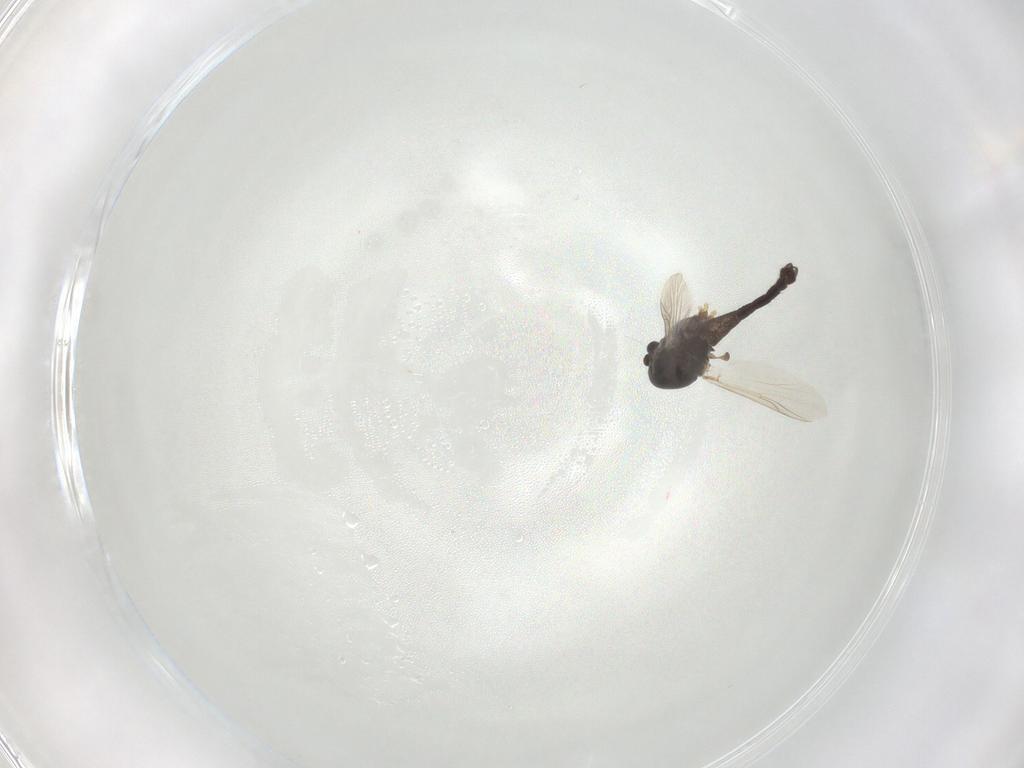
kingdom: Animalia
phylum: Arthropoda
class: Insecta
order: Diptera
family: Chironomidae
